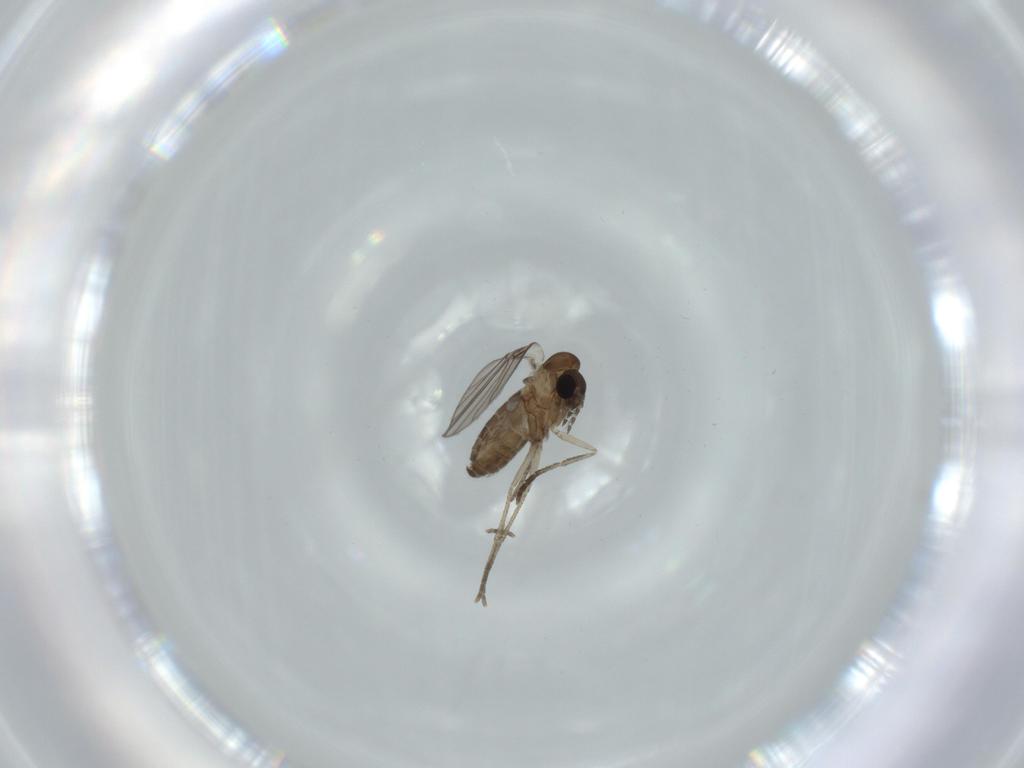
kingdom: Animalia
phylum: Arthropoda
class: Insecta
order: Diptera
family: Psychodidae
